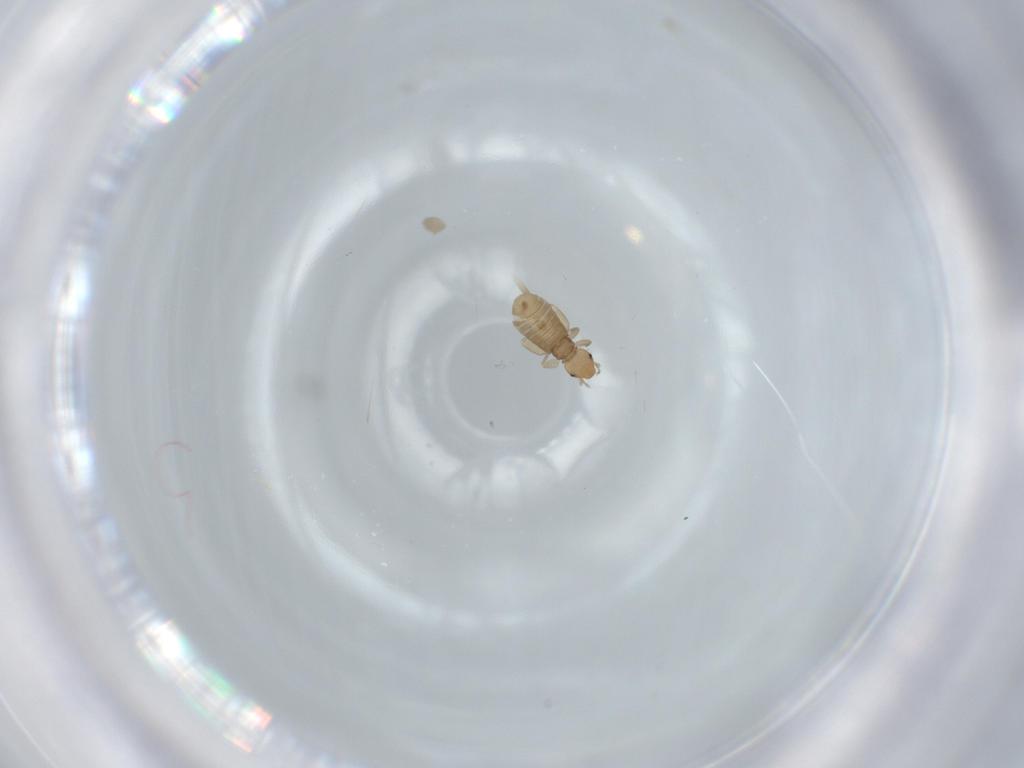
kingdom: Animalia
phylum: Arthropoda
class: Insecta
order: Psocodea
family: Liposcelididae
